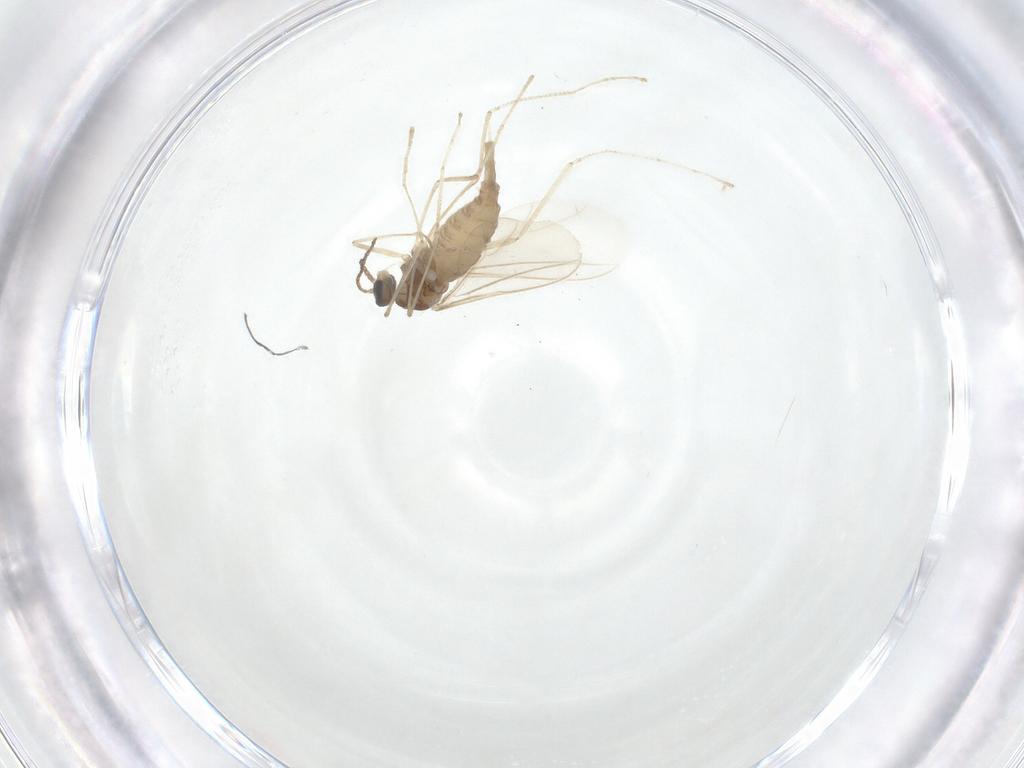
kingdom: Animalia
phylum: Arthropoda
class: Insecta
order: Diptera
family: Cecidomyiidae
